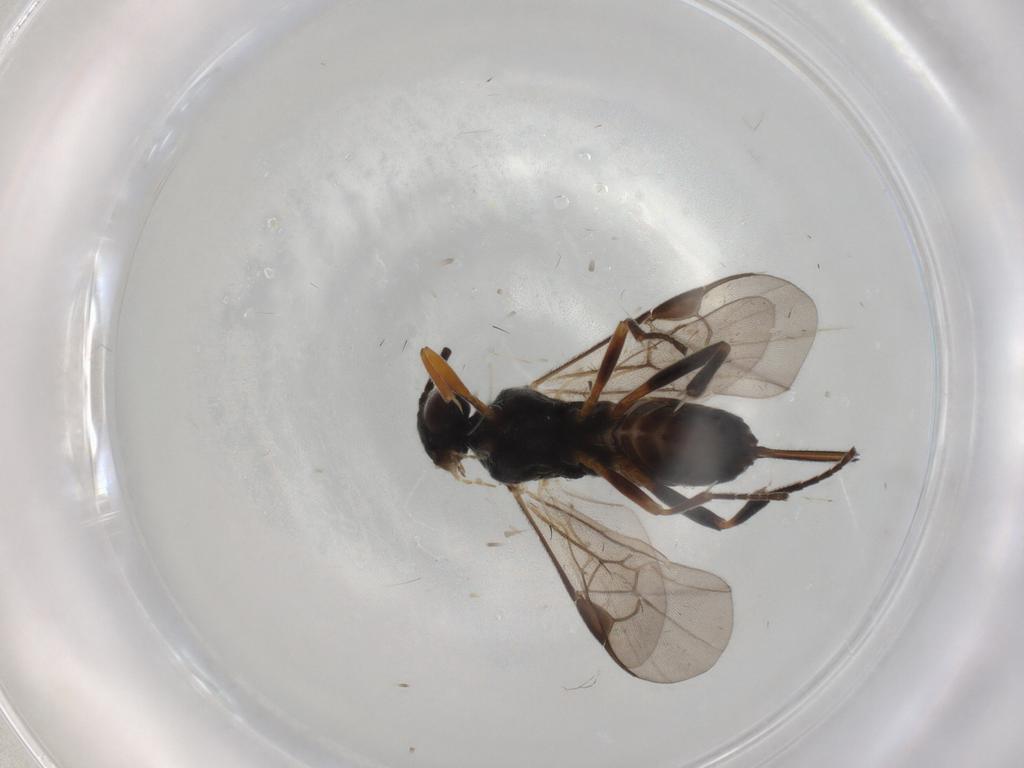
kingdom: Animalia
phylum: Arthropoda
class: Insecta
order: Hymenoptera
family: Braconidae
